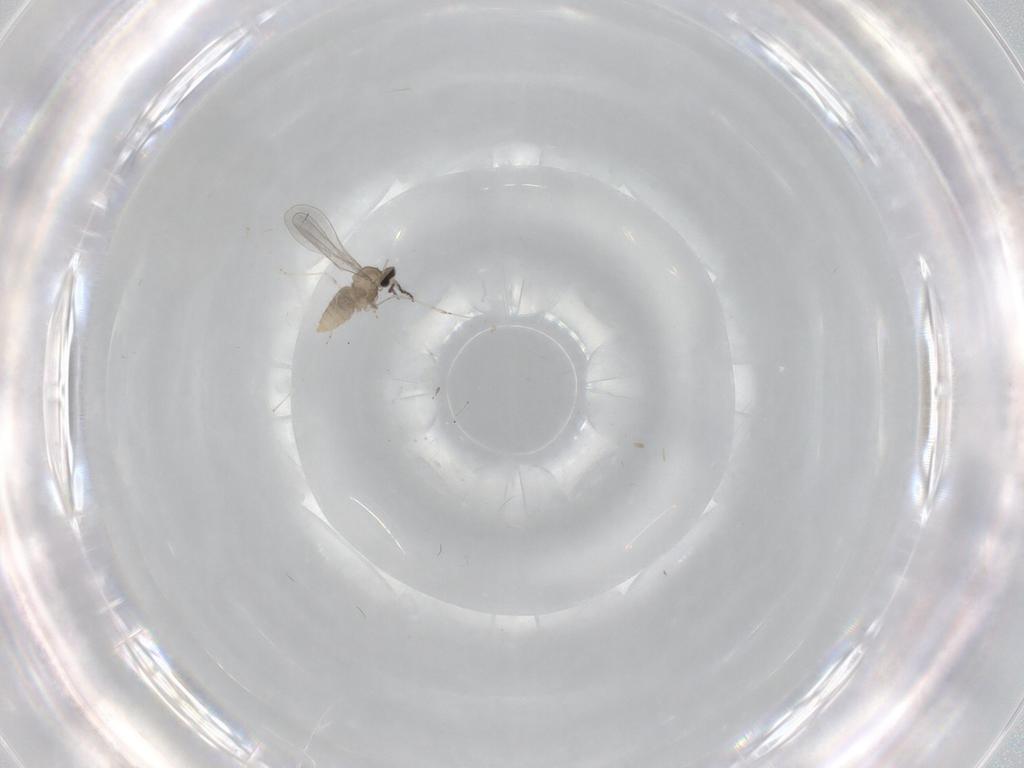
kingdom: Animalia
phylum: Arthropoda
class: Insecta
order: Diptera
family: Cecidomyiidae
